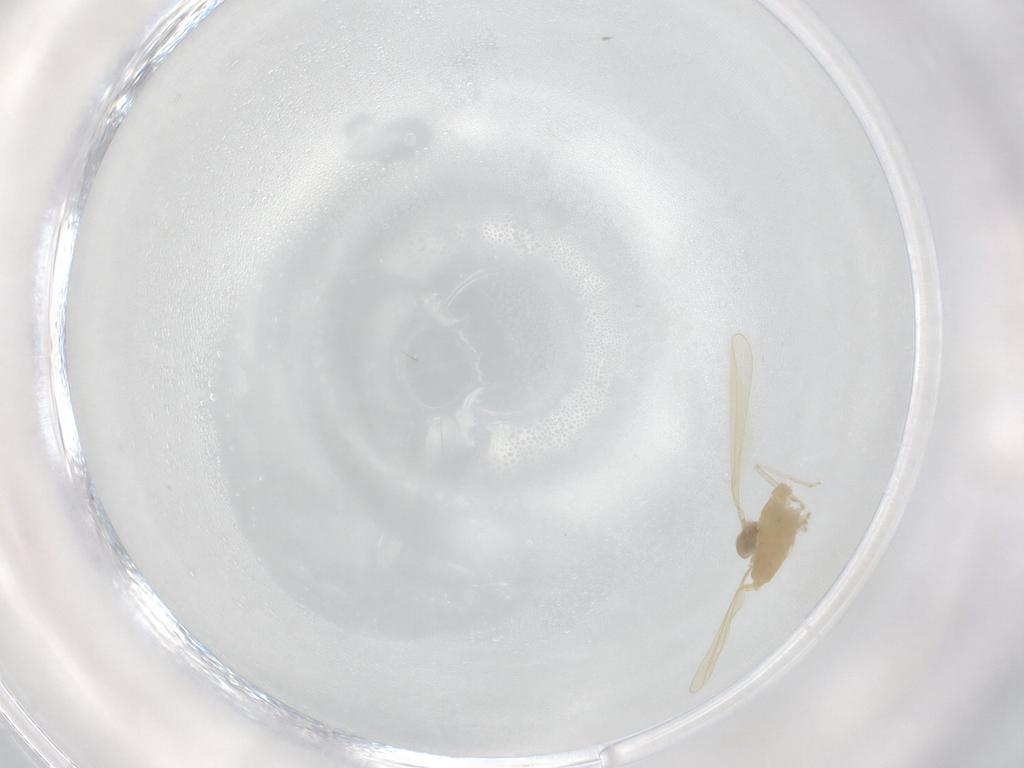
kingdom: Animalia
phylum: Arthropoda
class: Insecta
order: Diptera
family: Cecidomyiidae
